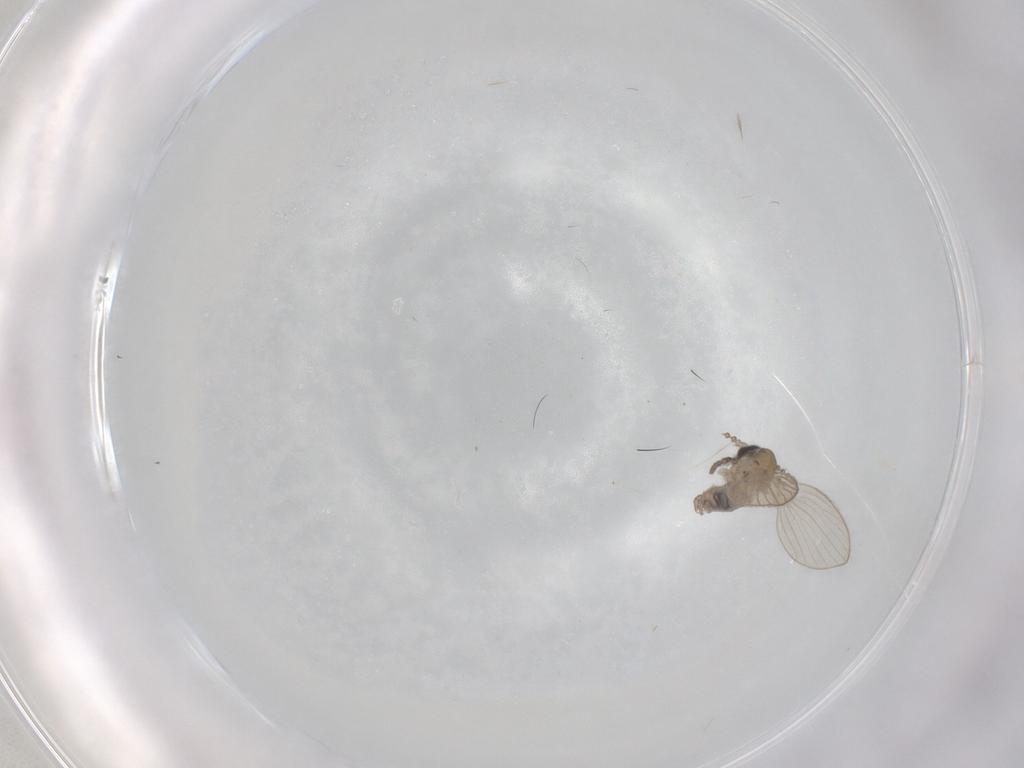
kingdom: Animalia
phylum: Arthropoda
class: Insecta
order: Diptera
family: Psychodidae
